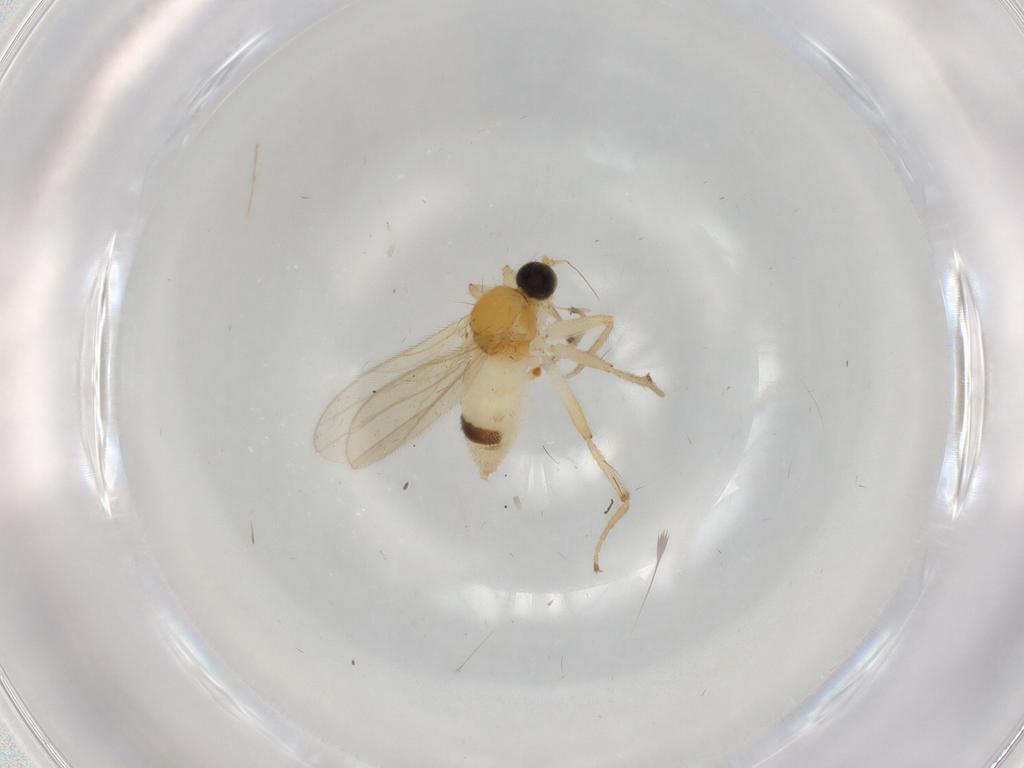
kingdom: Animalia
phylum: Arthropoda
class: Insecta
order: Diptera
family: Hybotidae
